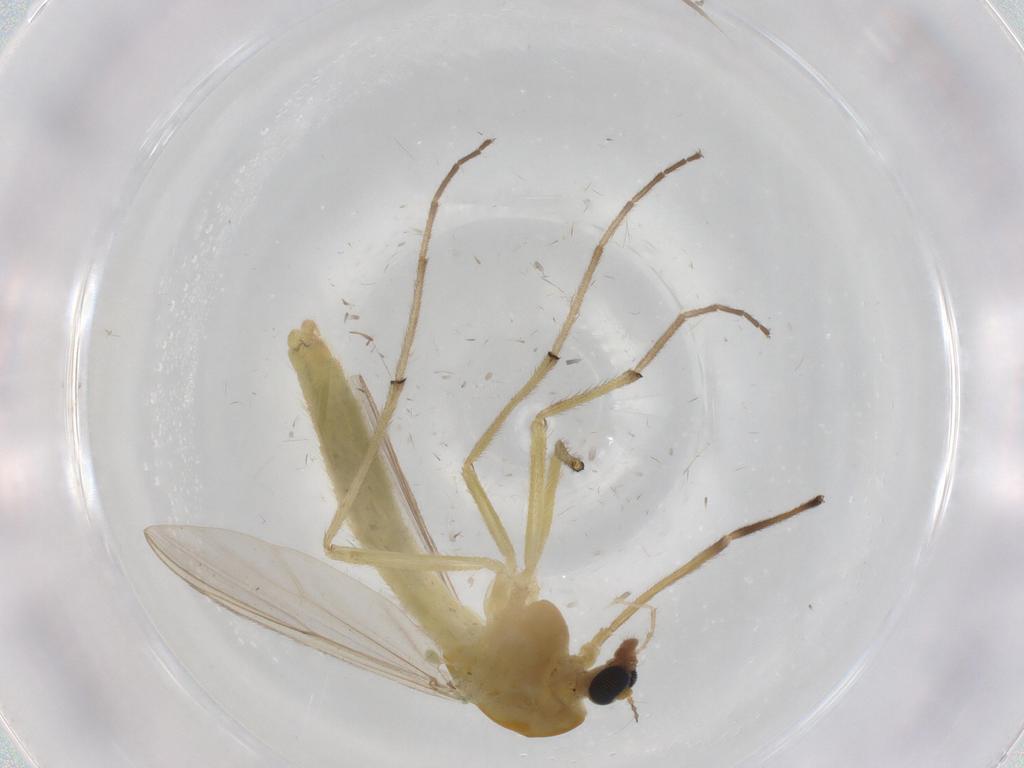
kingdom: Animalia
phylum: Arthropoda
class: Insecta
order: Diptera
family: Chironomidae
